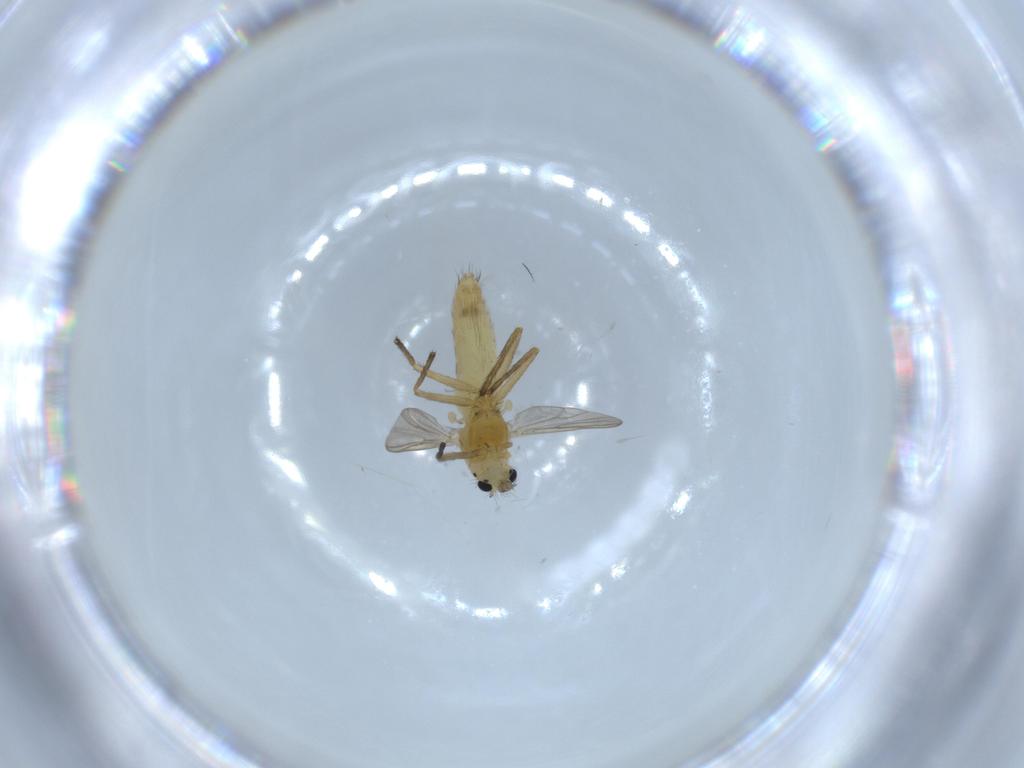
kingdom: Animalia
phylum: Arthropoda
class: Insecta
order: Diptera
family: Chironomidae
